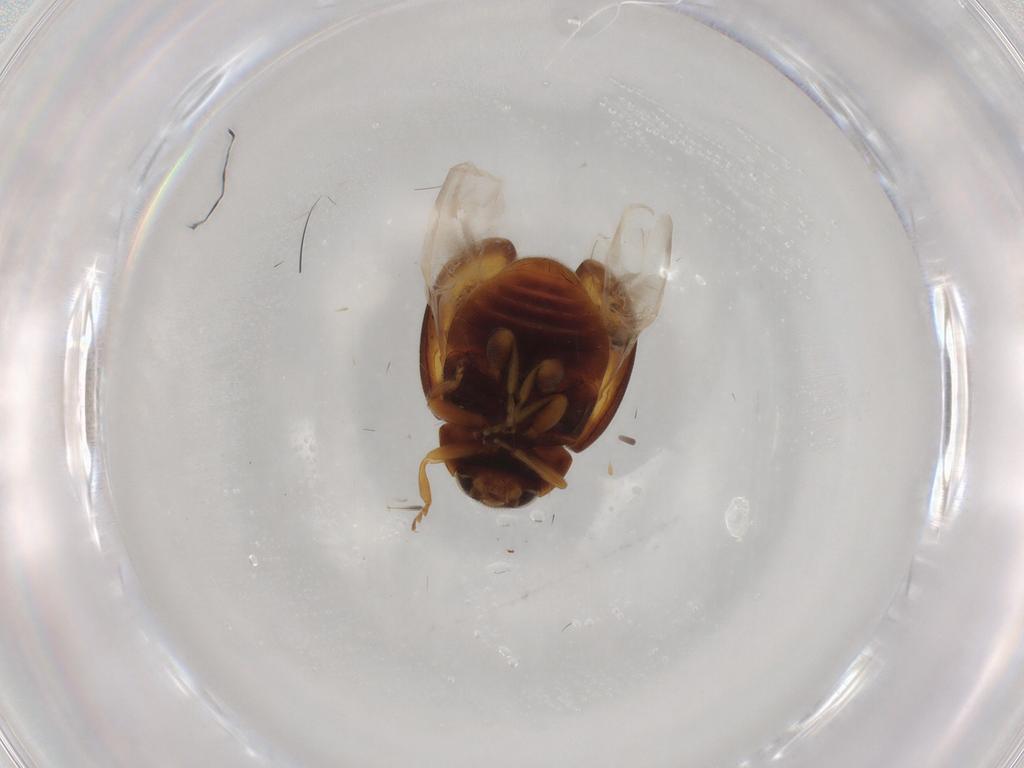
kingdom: Animalia
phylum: Arthropoda
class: Insecta
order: Coleoptera
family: Coccinellidae
